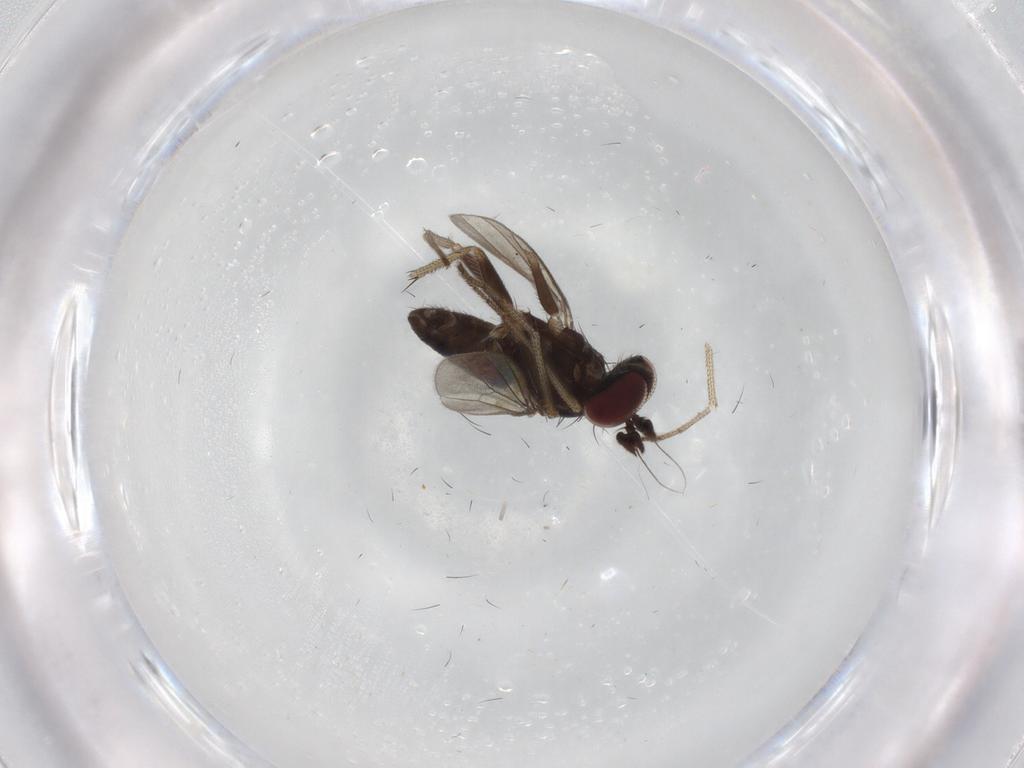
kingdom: Animalia
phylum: Arthropoda
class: Insecta
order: Diptera
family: Dolichopodidae
